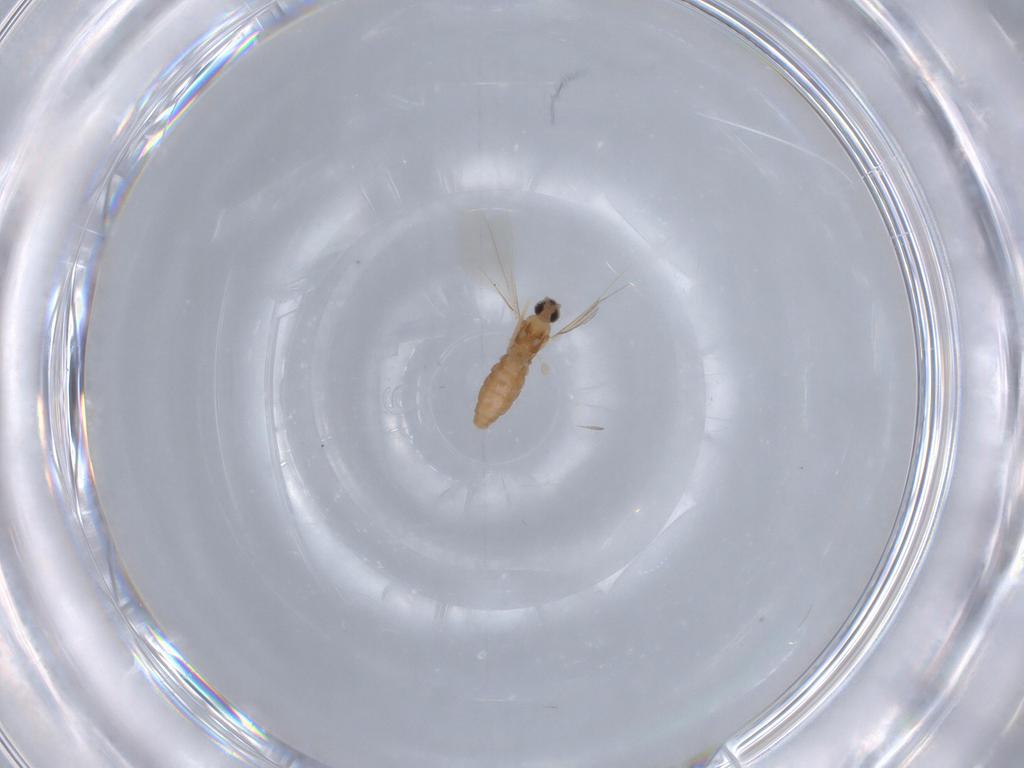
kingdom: Animalia
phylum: Arthropoda
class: Insecta
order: Diptera
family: Cecidomyiidae
